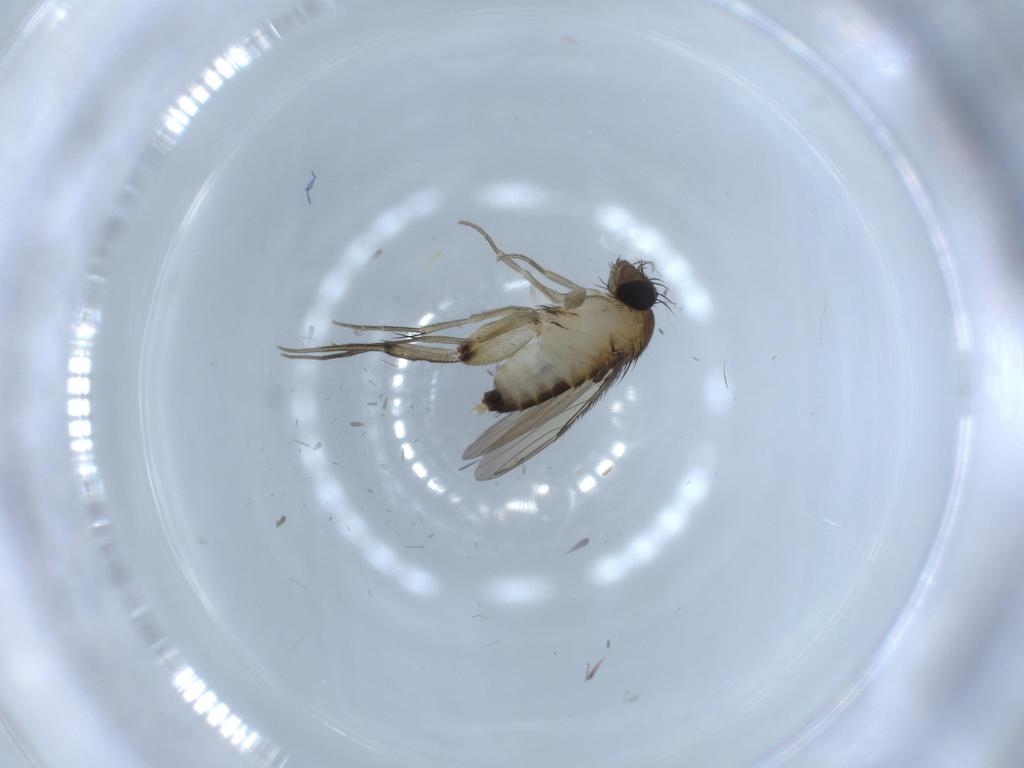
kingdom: Animalia
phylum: Arthropoda
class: Insecta
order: Diptera
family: Phoridae
